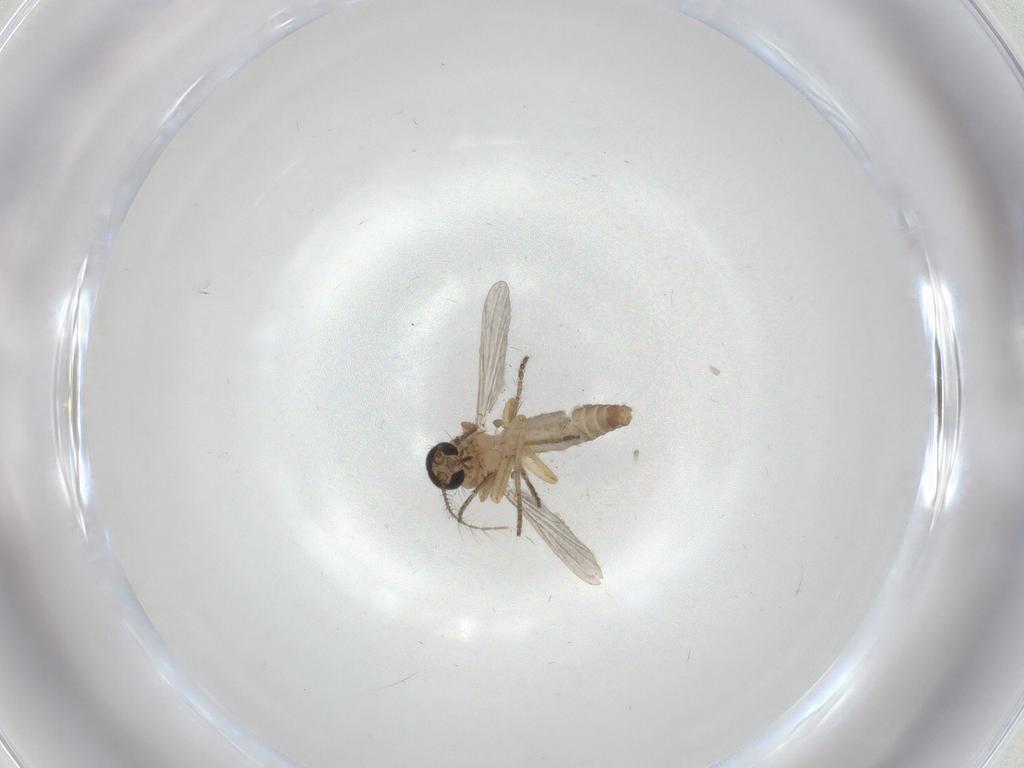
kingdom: Animalia
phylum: Arthropoda
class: Insecta
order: Diptera
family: Ceratopogonidae
